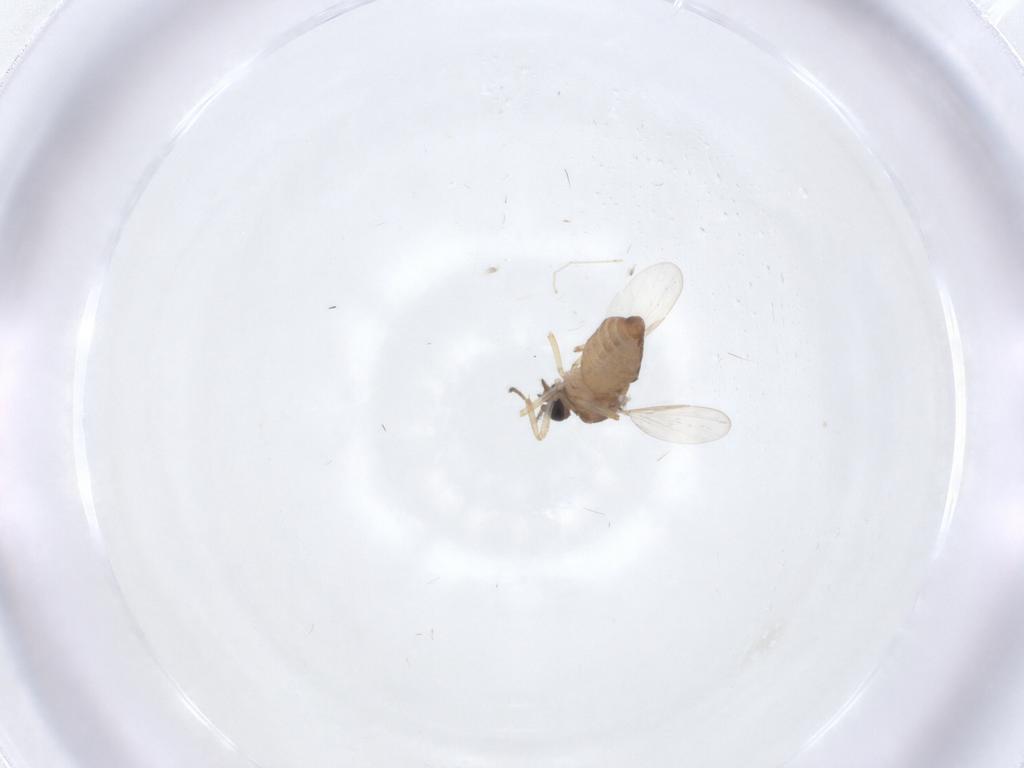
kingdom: Animalia
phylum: Arthropoda
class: Insecta
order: Diptera
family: Ceratopogonidae
